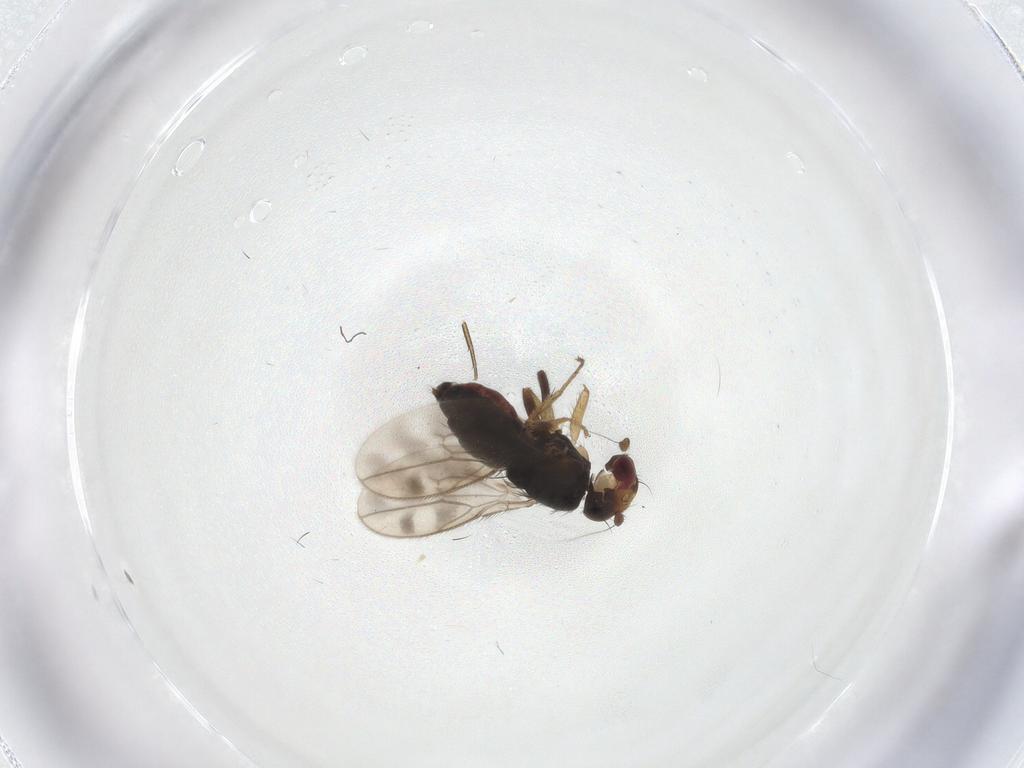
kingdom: Animalia
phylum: Arthropoda
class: Insecta
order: Diptera
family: Sphaeroceridae
